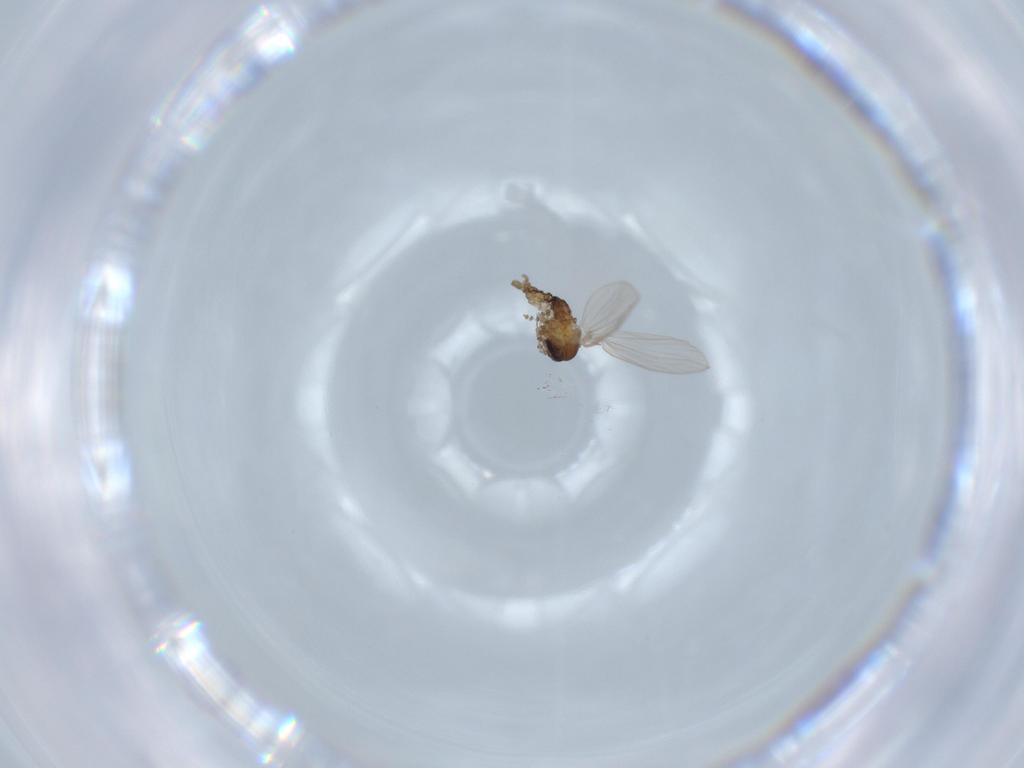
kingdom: Animalia
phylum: Arthropoda
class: Insecta
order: Diptera
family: Psychodidae
